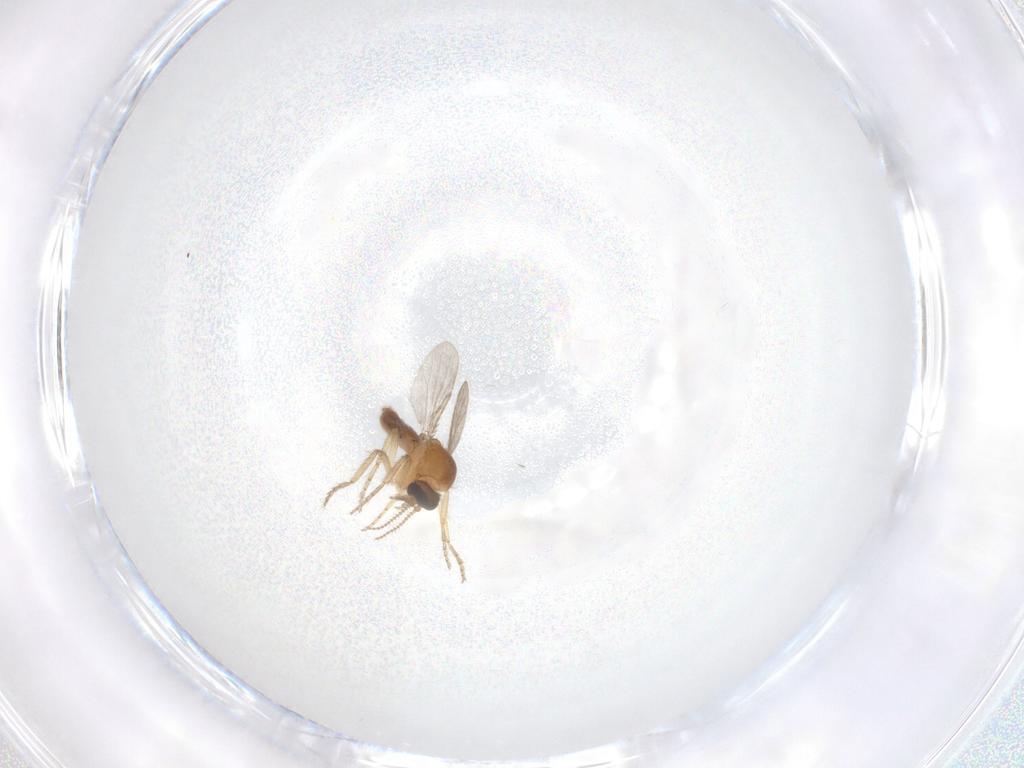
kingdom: Animalia
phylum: Arthropoda
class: Insecta
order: Diptera
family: Ceratopogonidae
